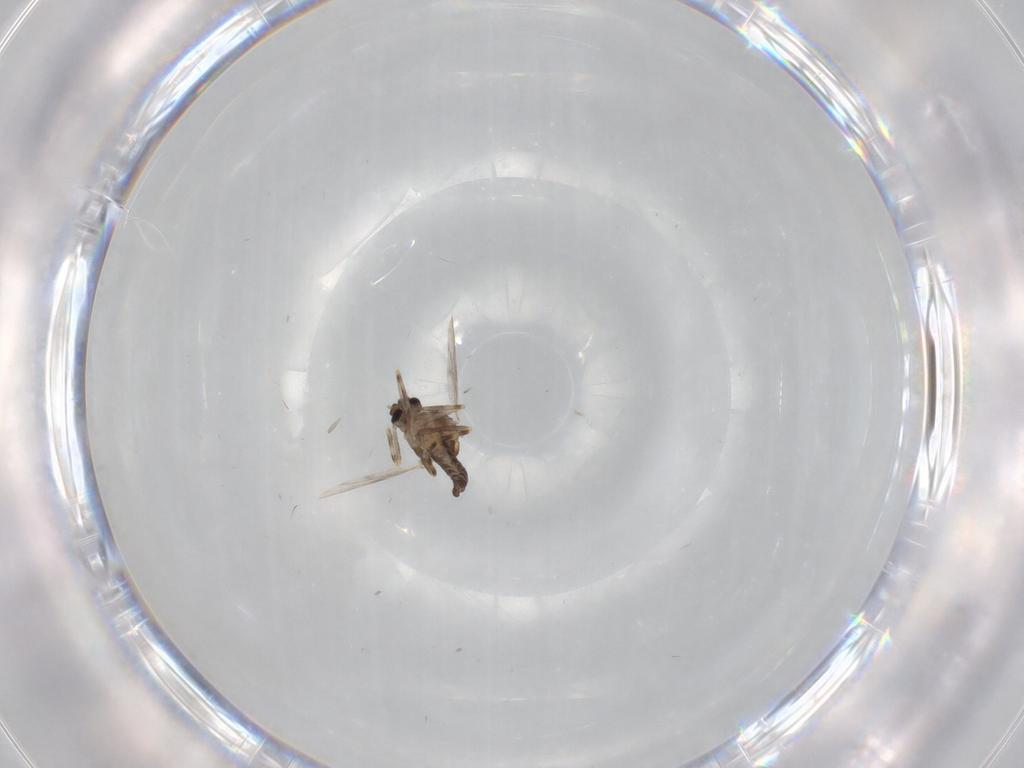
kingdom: Animalia
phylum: Arthropoda
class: Insecta
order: Diptera
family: Ceratopogonidae
